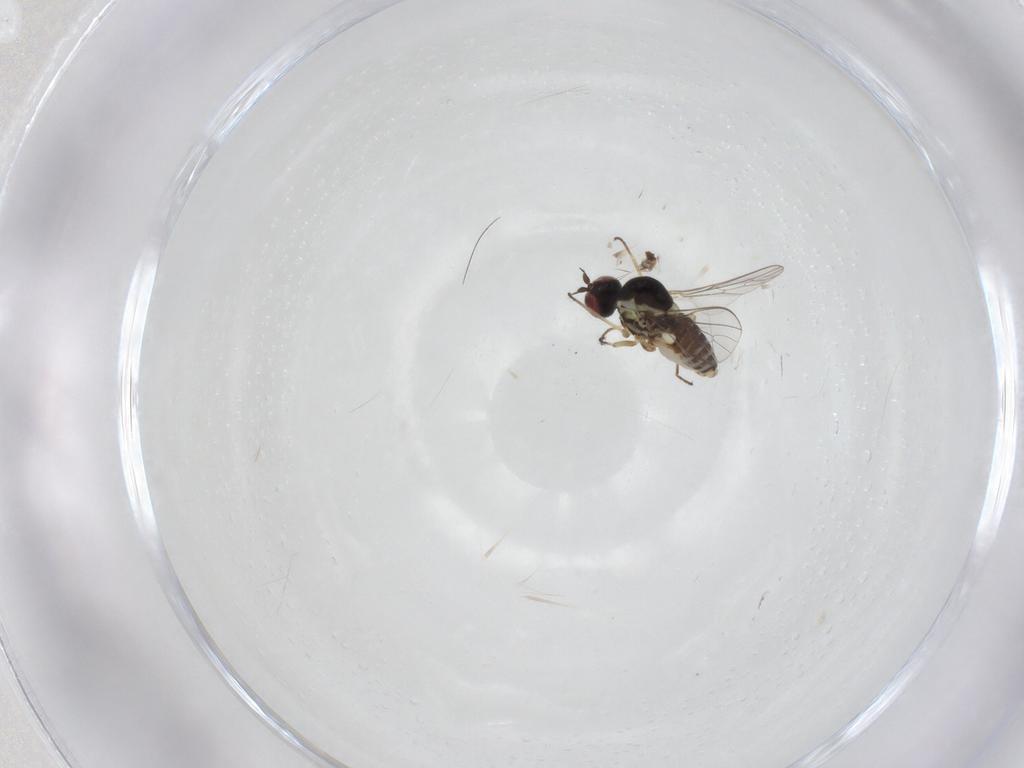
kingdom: Animalia
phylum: Arthropoda
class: Insecta
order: Diptera
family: Bombyliidae
